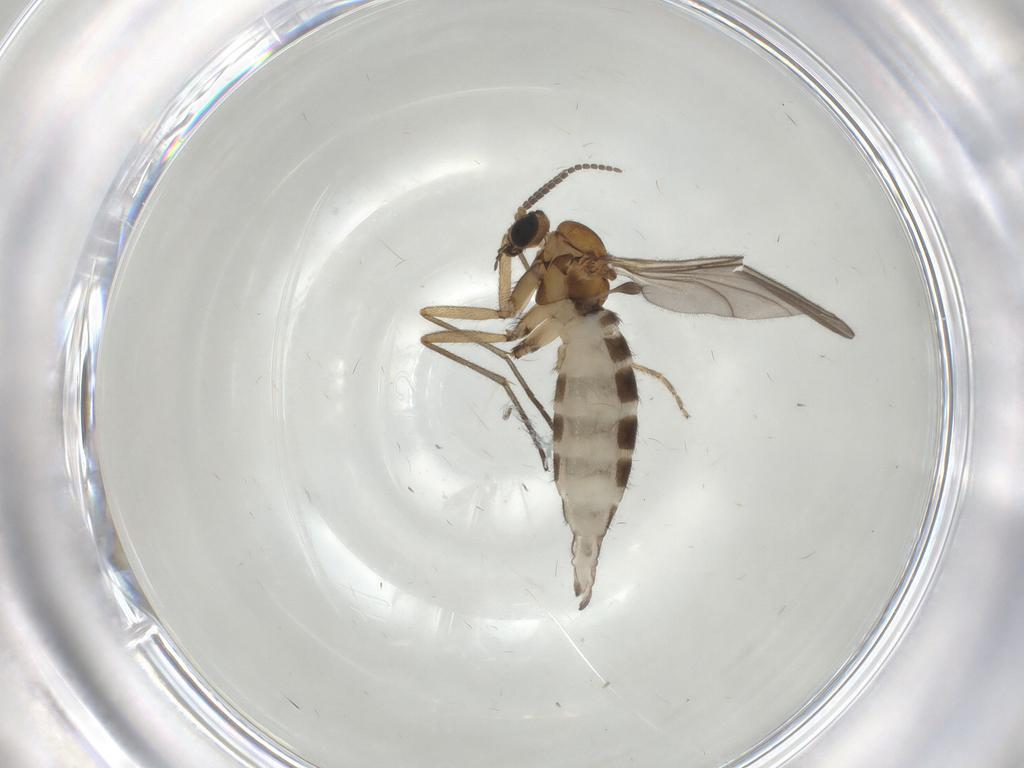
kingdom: Animalia
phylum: Arthropoda
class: Insecta
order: Diptera
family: Sciaridae
